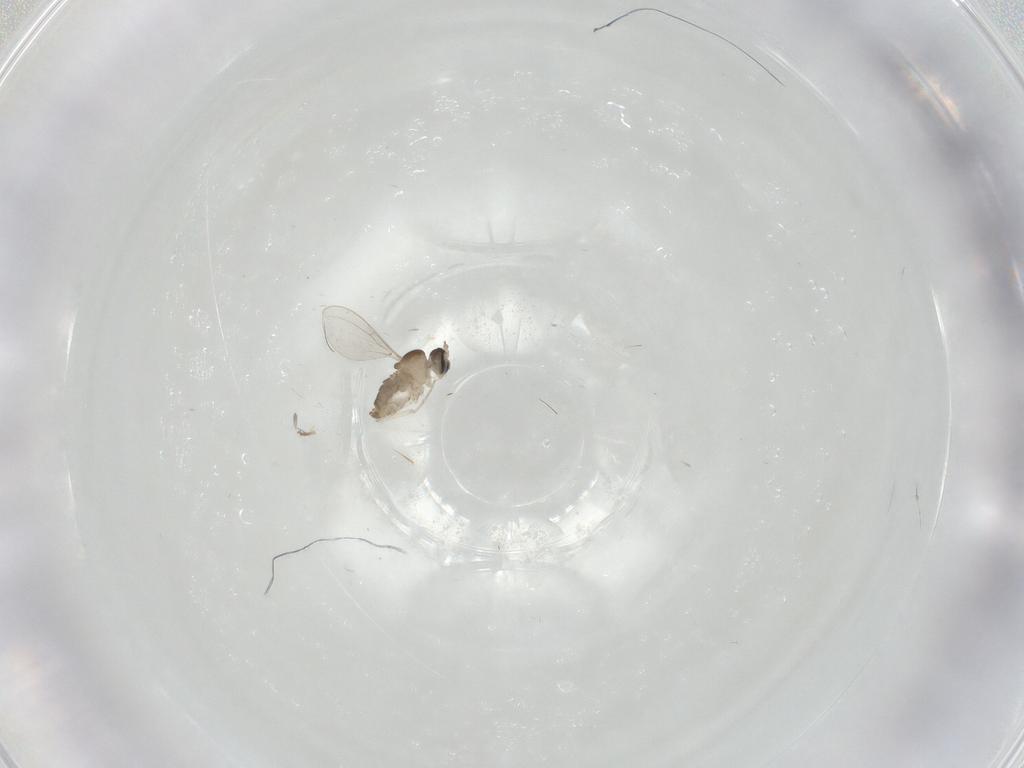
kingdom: Animalia
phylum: Arthropoda
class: Insecta
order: Diptera
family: Cecidomyiidae
